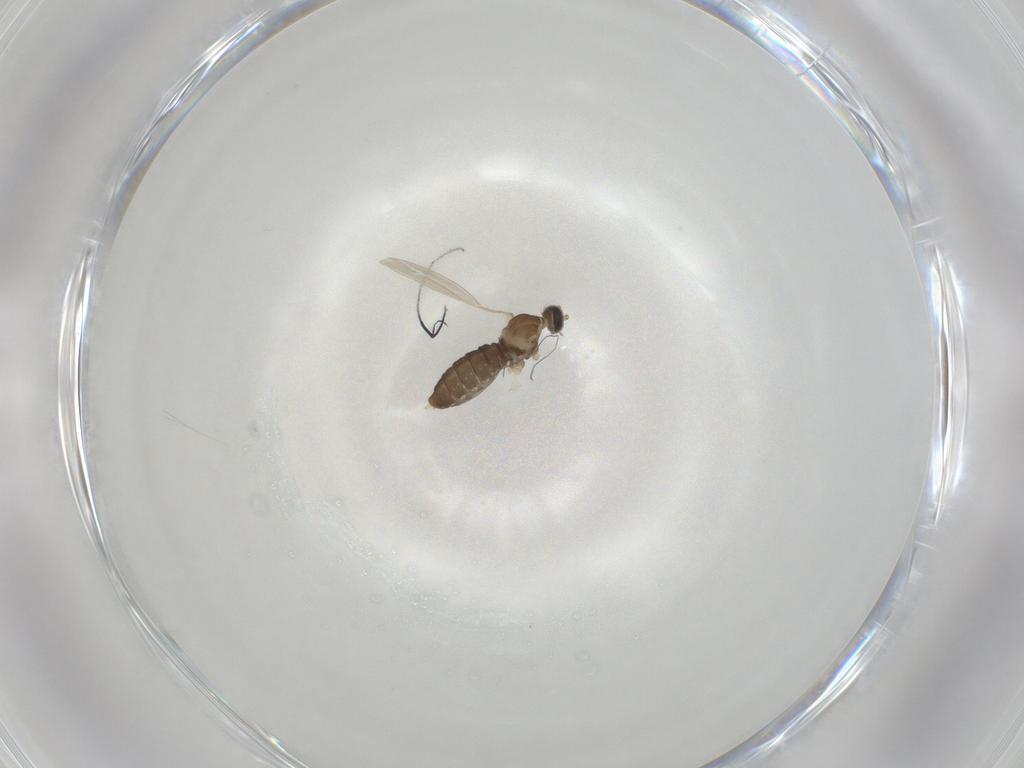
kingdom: Animalia
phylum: Arthropoda
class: Insecta
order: Diptera
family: Cecidomyiidae
